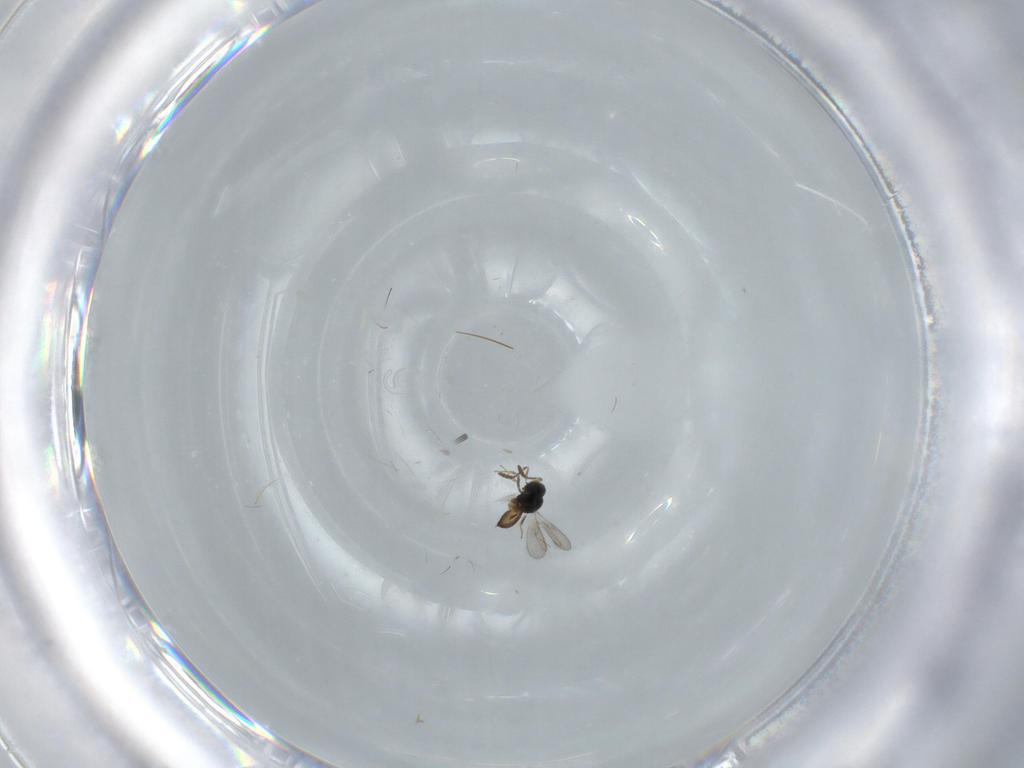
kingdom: Animalia
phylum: Arthropoda
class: Insecta
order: Hymenoptera
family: Scelionidae
